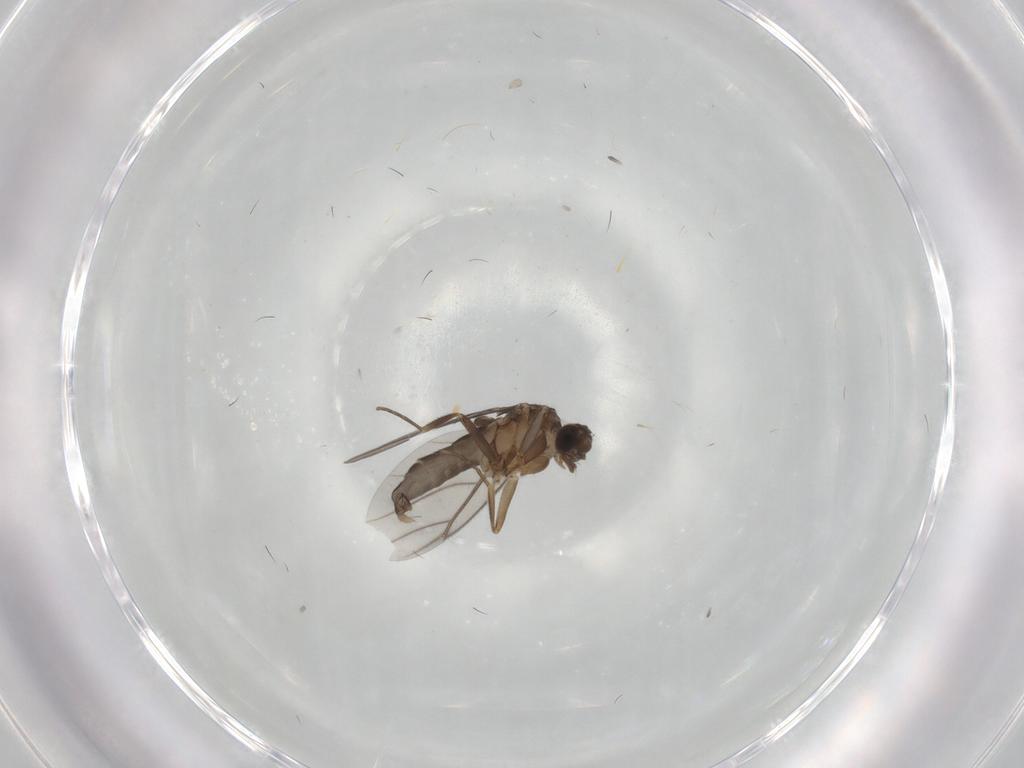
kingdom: Animalia
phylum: Arthropoda
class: Insecta
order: Diptera
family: Phoridae
